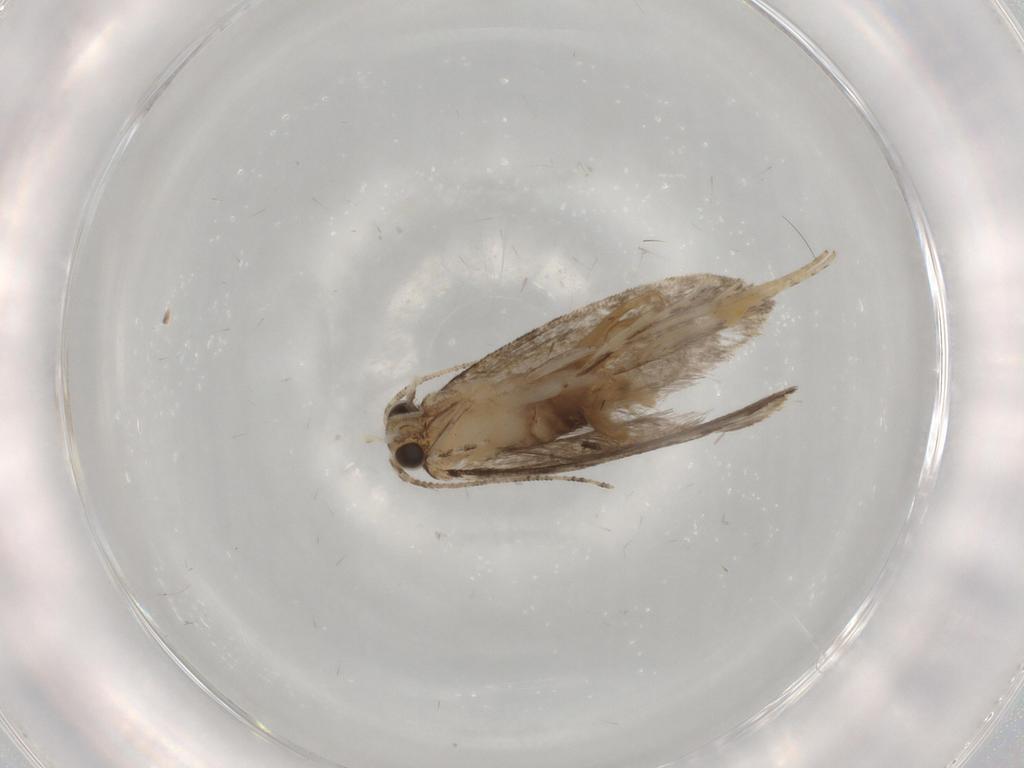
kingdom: Animalia
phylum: Arthropoda
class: Insecta
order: Lepidoptera
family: Tineidae
